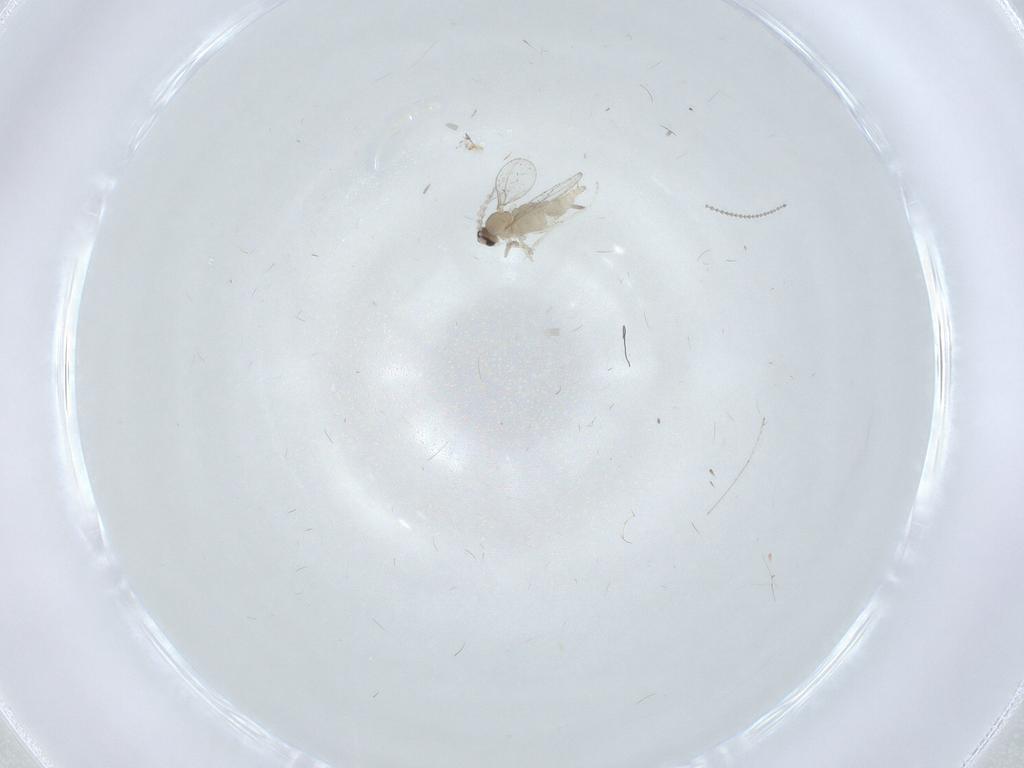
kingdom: Animalia
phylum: Arthropoda
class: Insecta
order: Diptera
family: Cecidomyiidae
